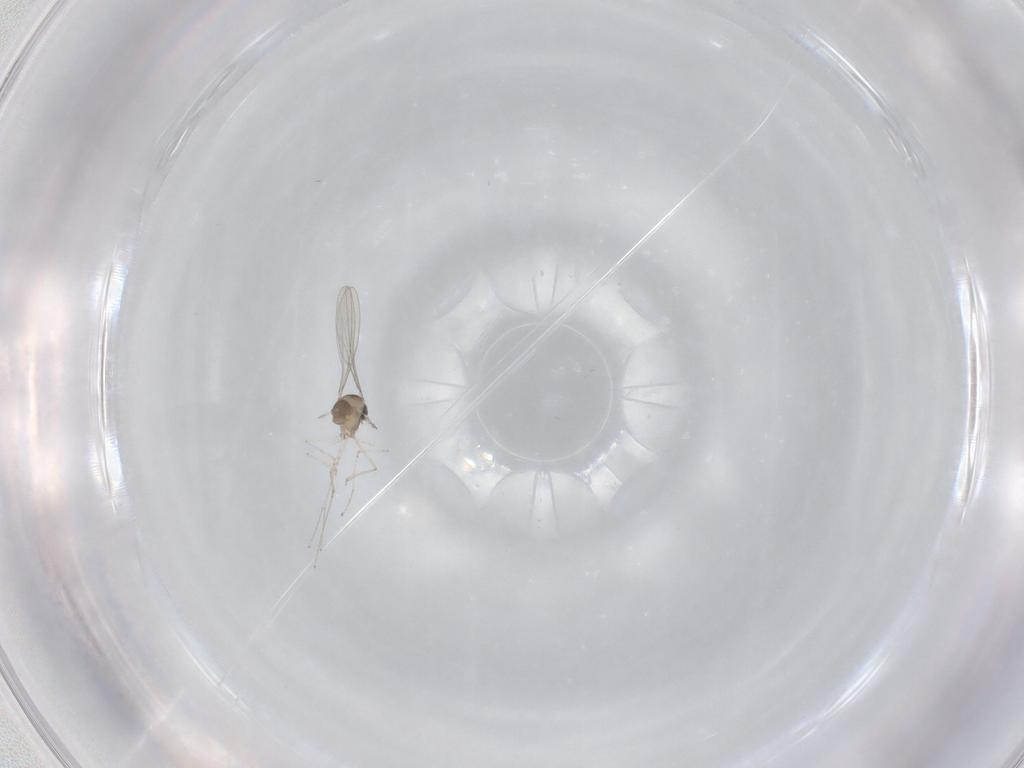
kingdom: Animalia
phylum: Arthropoda
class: Insecta
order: Diptera
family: Cecidomyiidae
